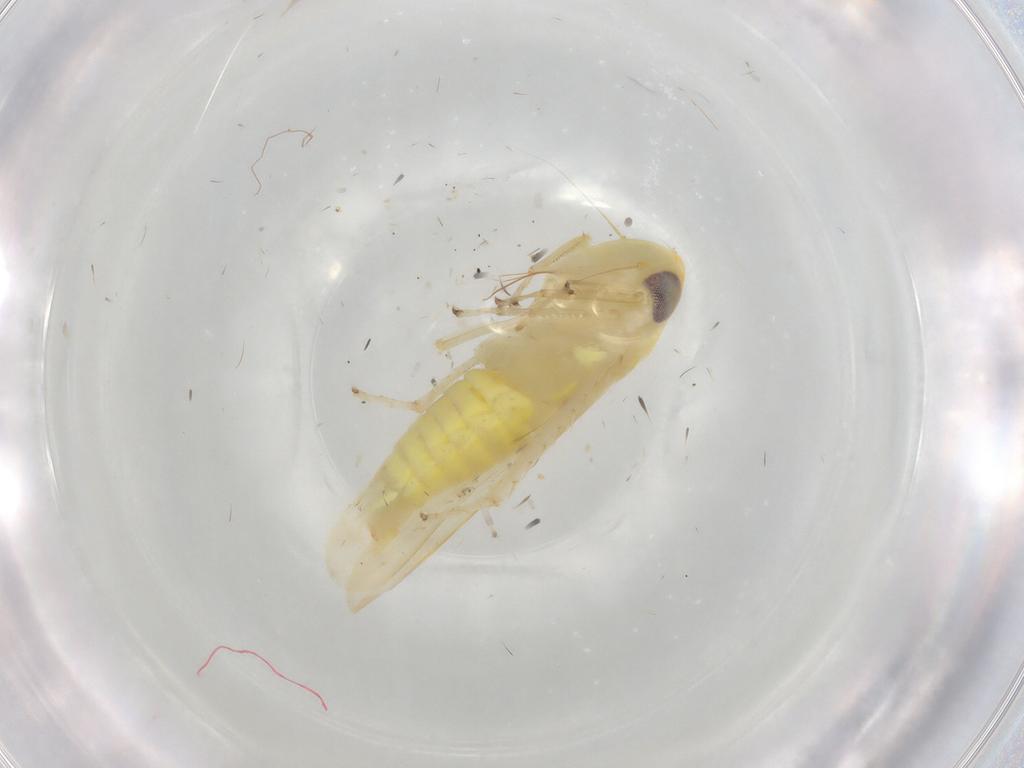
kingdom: Animalia
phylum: Arthropoda
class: Insecta
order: Hemiptera
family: Cicadellidae
